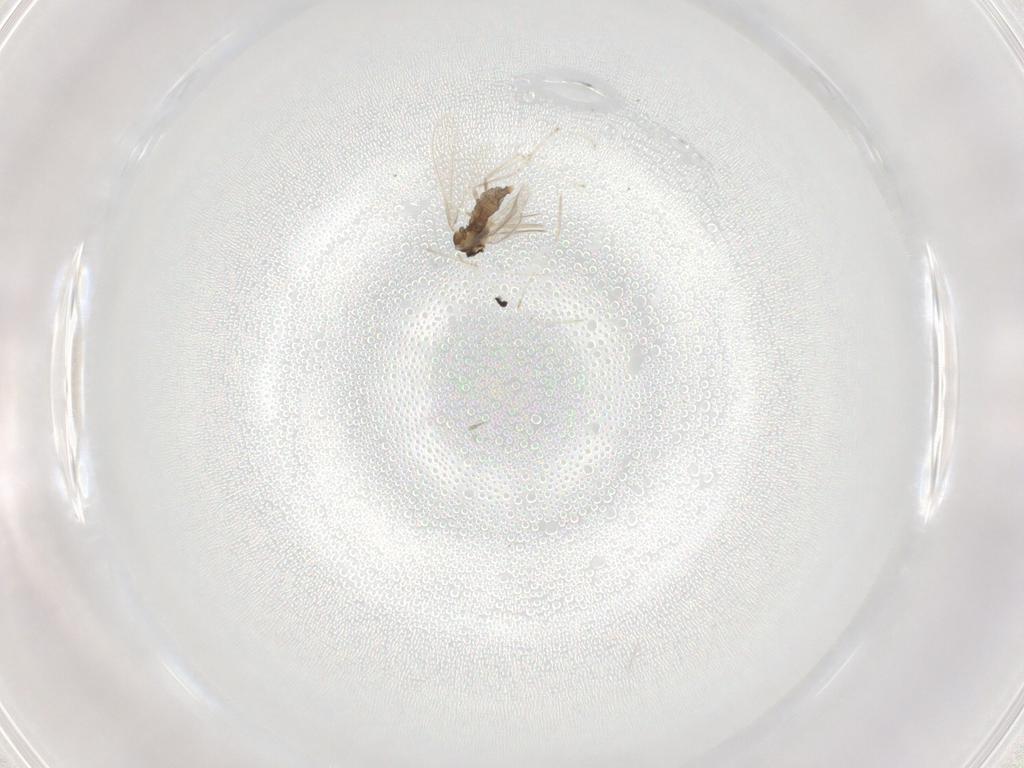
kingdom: Animalia
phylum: Arthropoda
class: Insecta
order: Diptera
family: Cecidomyiidae
